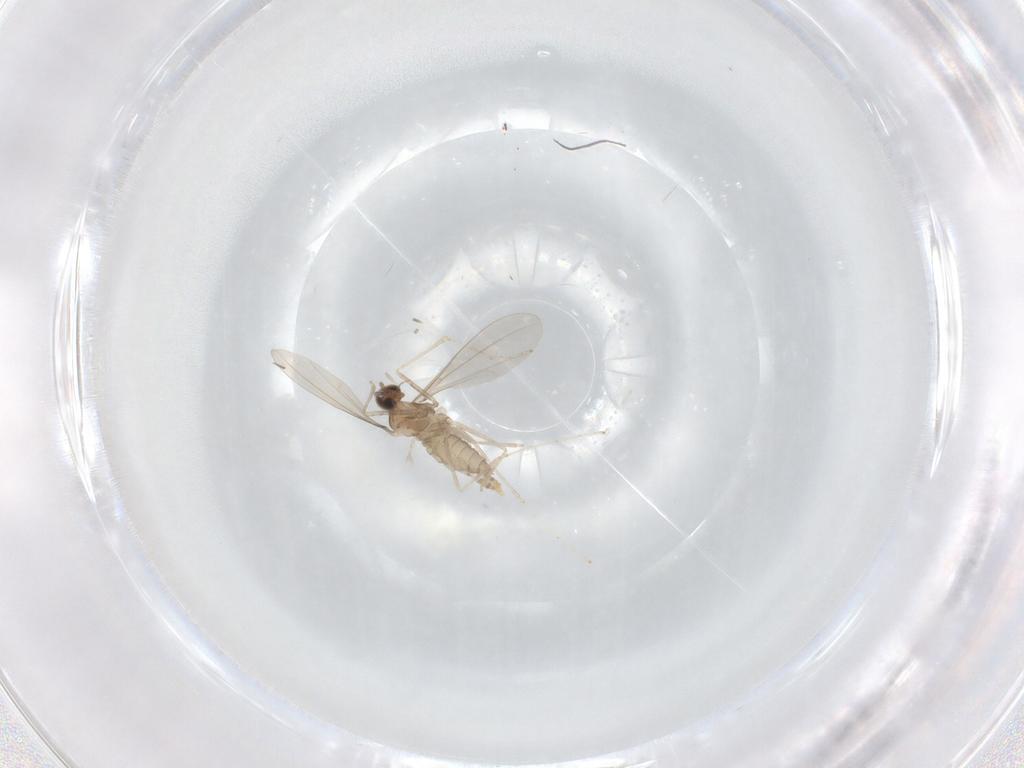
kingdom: Animalia
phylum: Arthropoda
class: Insecta
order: Diptera
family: Cecidomyiidae
